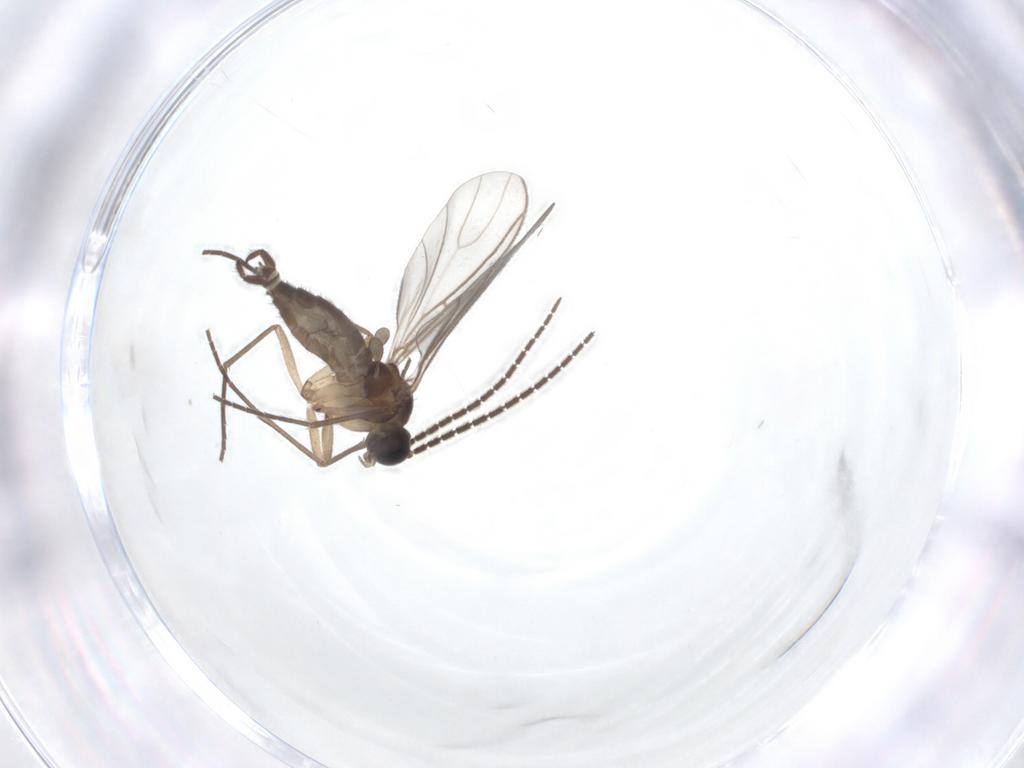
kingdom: Animalia
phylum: Arthropoda
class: Insecta
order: Diptera
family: Sciaridae
